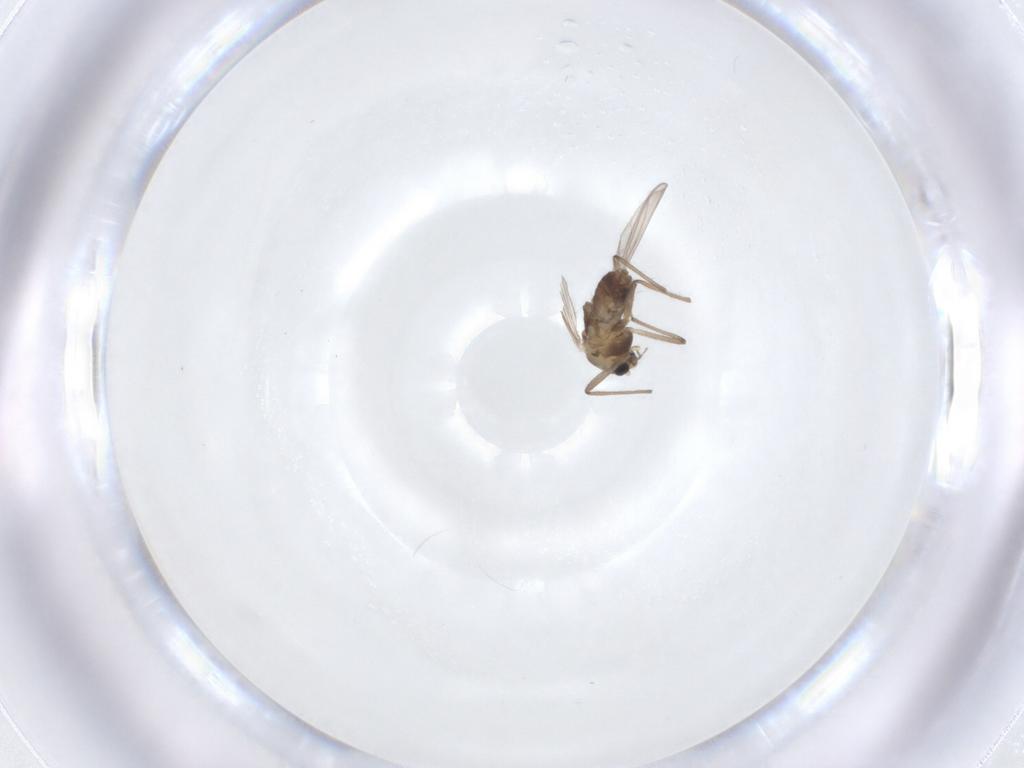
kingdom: Animalia
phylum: Arthropoda
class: Insecta
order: Diptera
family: Chironomidae
